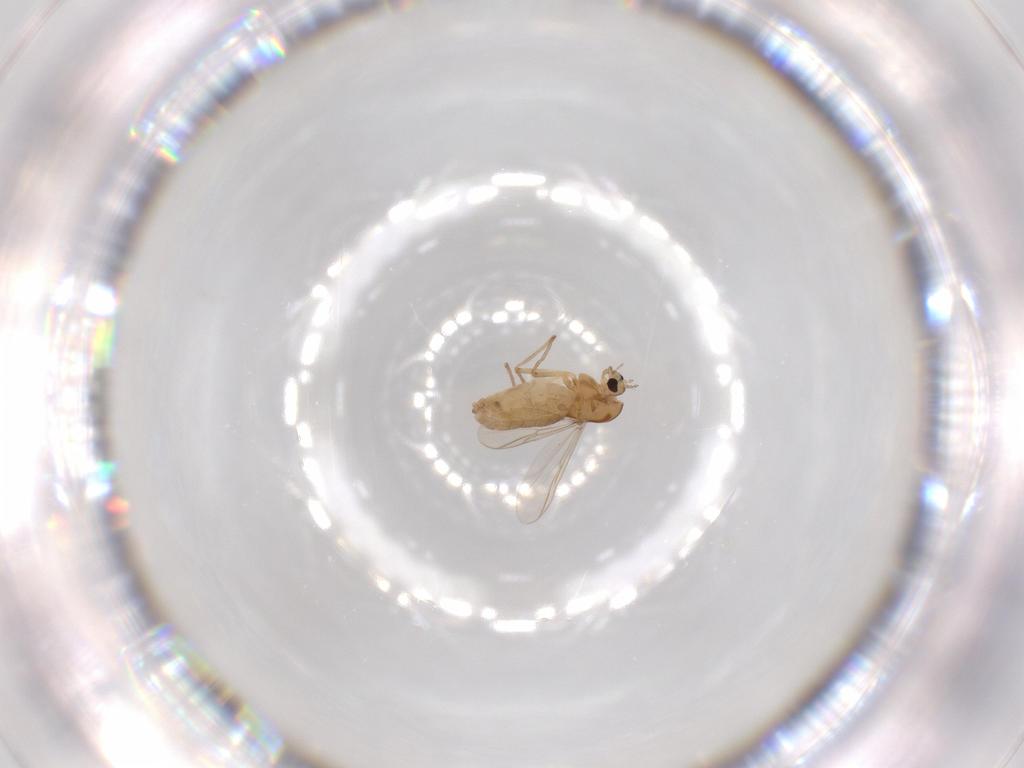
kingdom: Animalia
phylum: Arthropoda
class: Insecta
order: Diptera
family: Chironomidae
